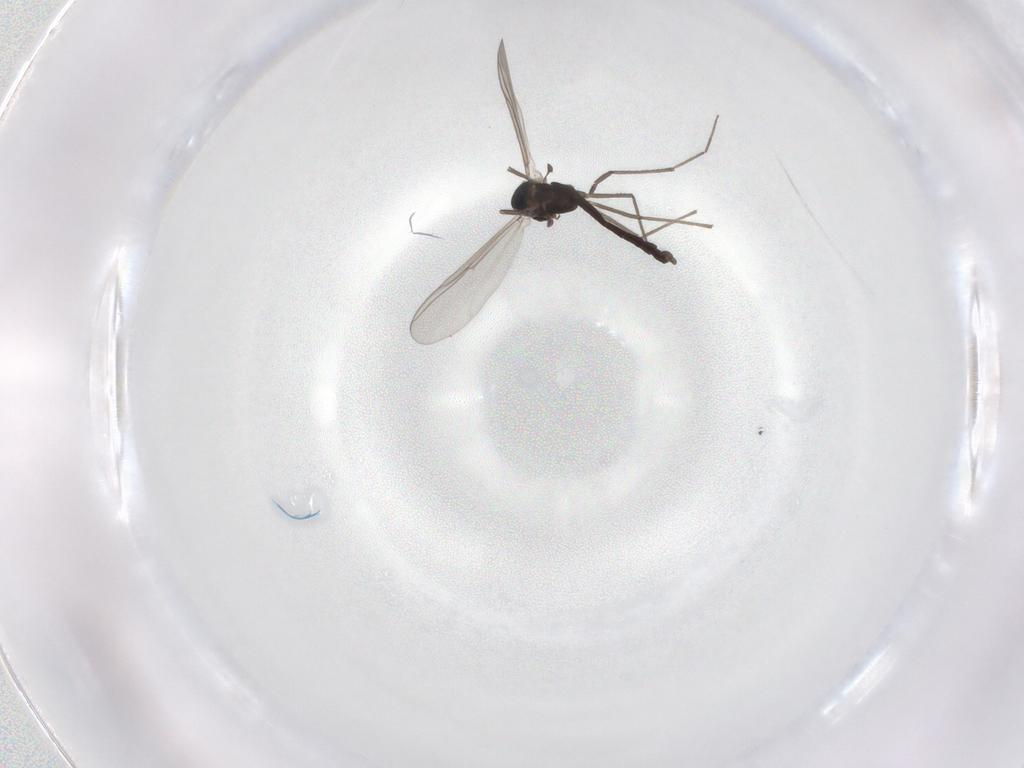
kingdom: Animalia
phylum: Arthropoda
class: Insecta
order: Diptera
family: Chironomidae
